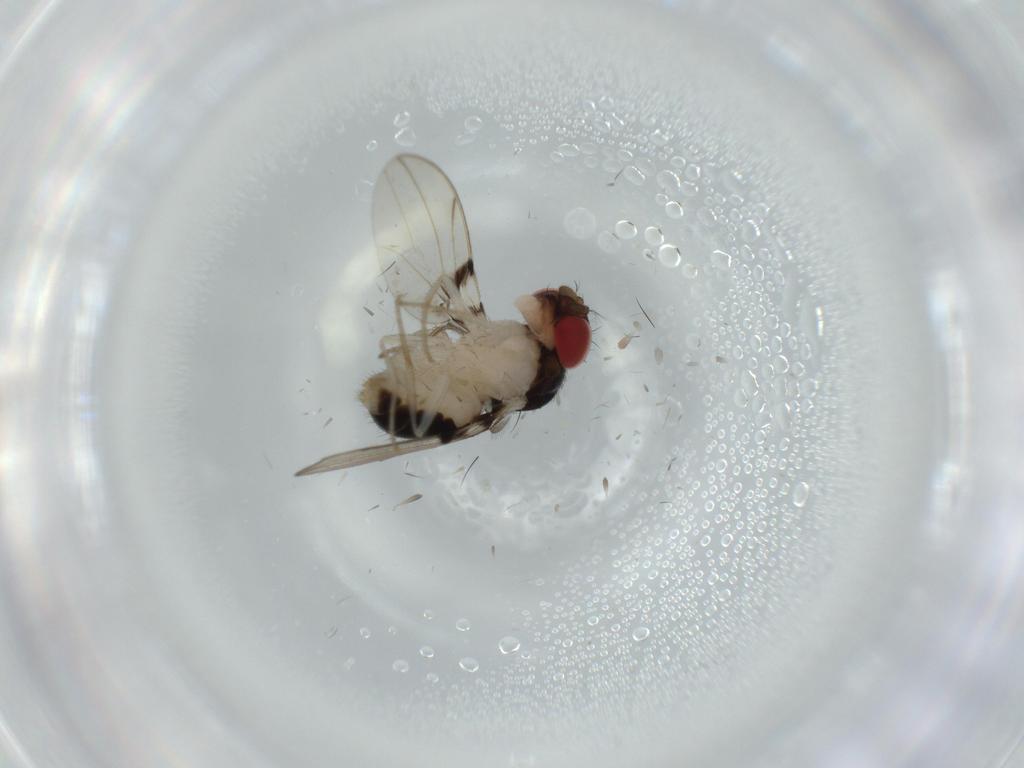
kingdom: Animalia
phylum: Arthropoda
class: Insecta
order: Diptera
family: Drosophilidae
